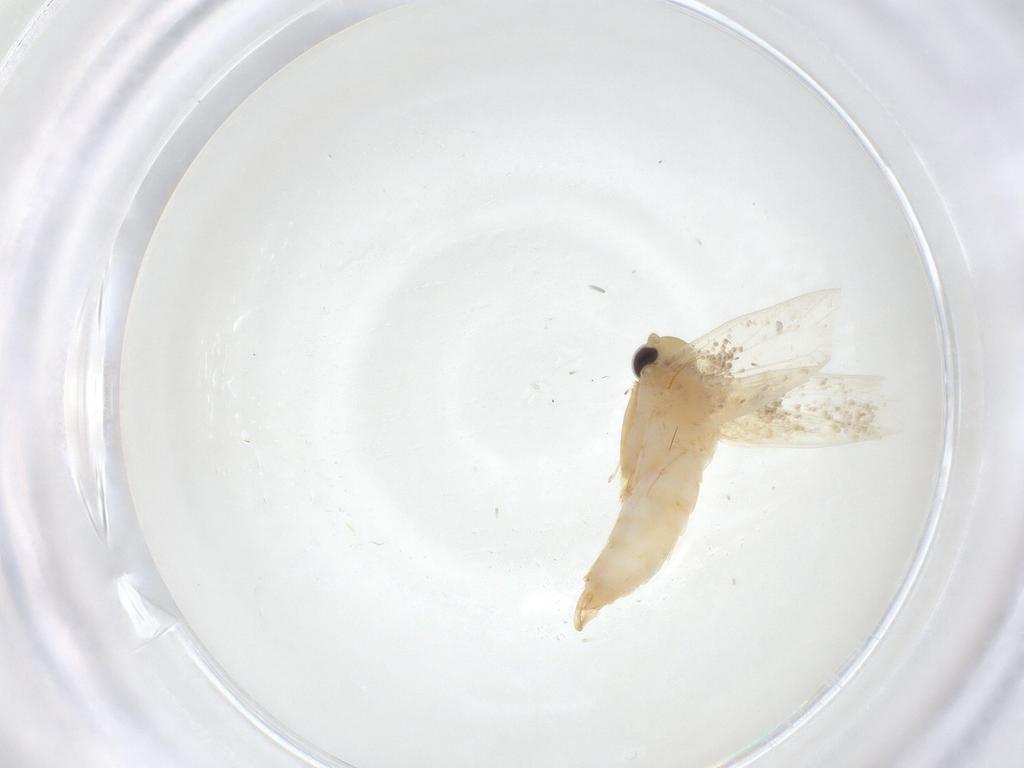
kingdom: Animalia
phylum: Arthropoda
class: Insecta
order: Lepidoptera
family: Erebidae
